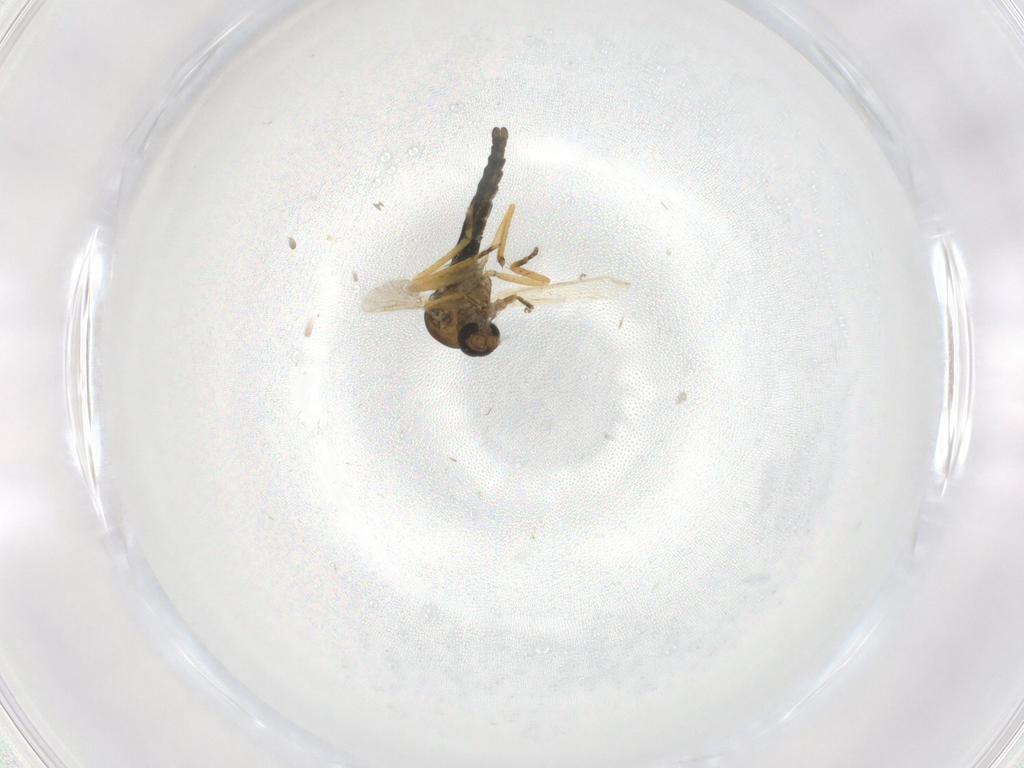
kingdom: Animalia
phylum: Arthropoda
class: Insecta
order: Diptera
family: Ceratopogonidae
